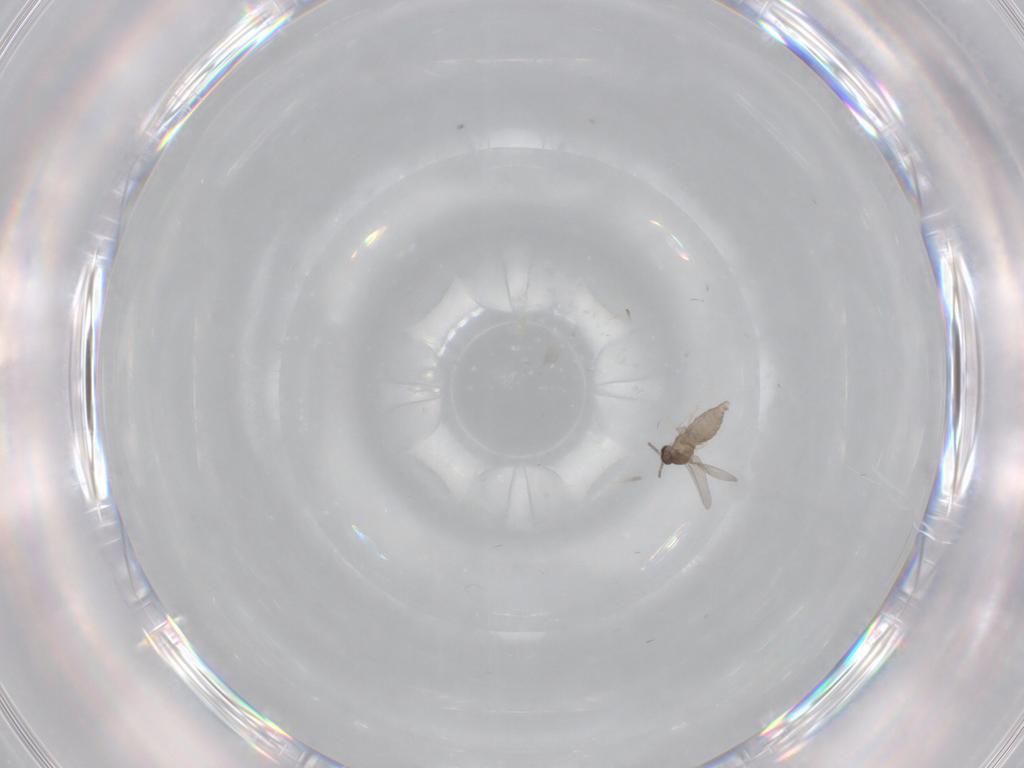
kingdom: Animalia
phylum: Arthropoda
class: Insecta
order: Diptera
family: Cecidomyiidae
